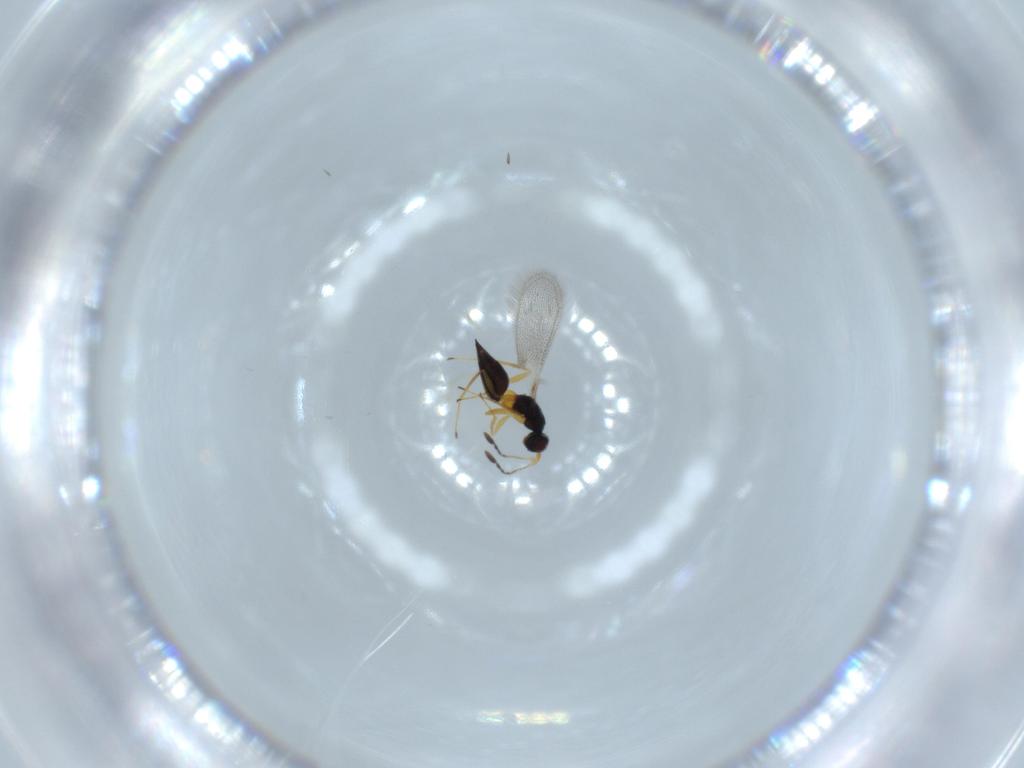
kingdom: Animalia
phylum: Arthropoda
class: Insecta
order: Hymenoptera
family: Mymaridae
